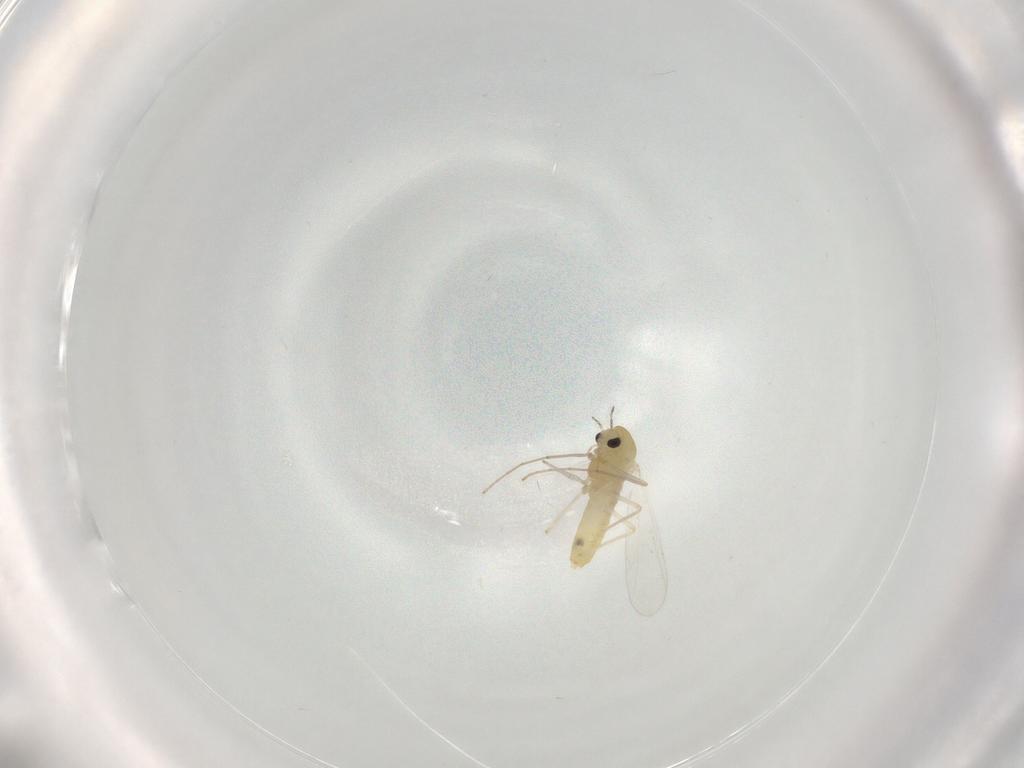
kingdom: Animalia
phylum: Arthropoda
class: Insecta
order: Diptera
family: Chironomidae
